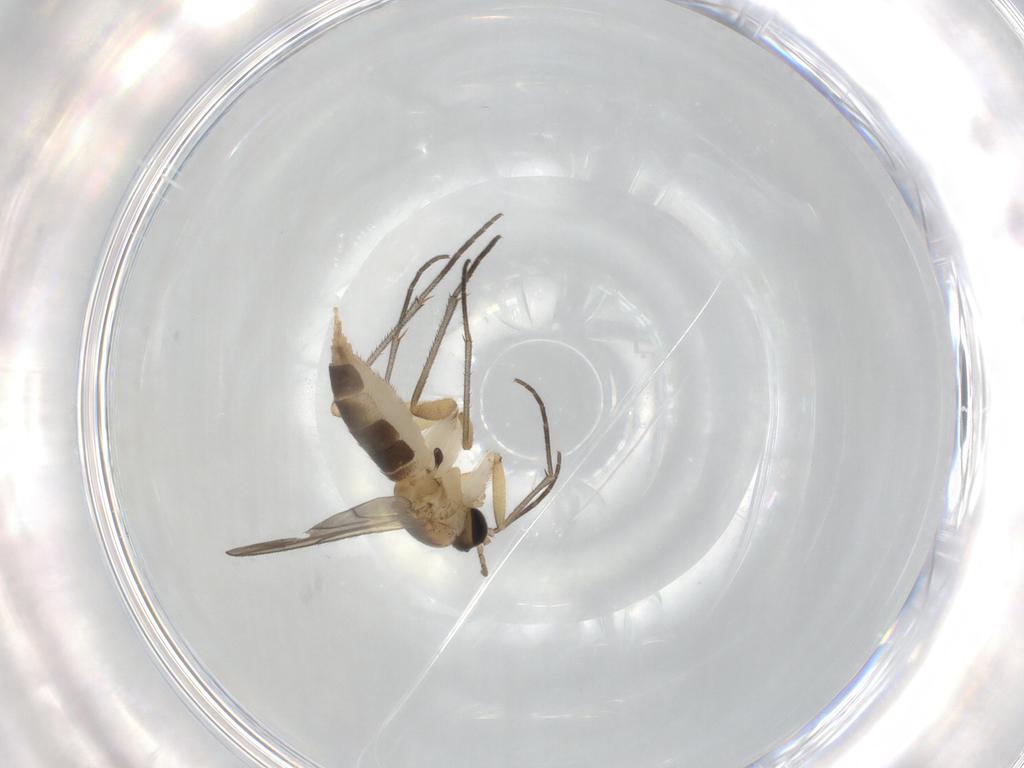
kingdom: Animalia
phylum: Arthropoda
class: Insecta
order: Diptera
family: Sciaridae
